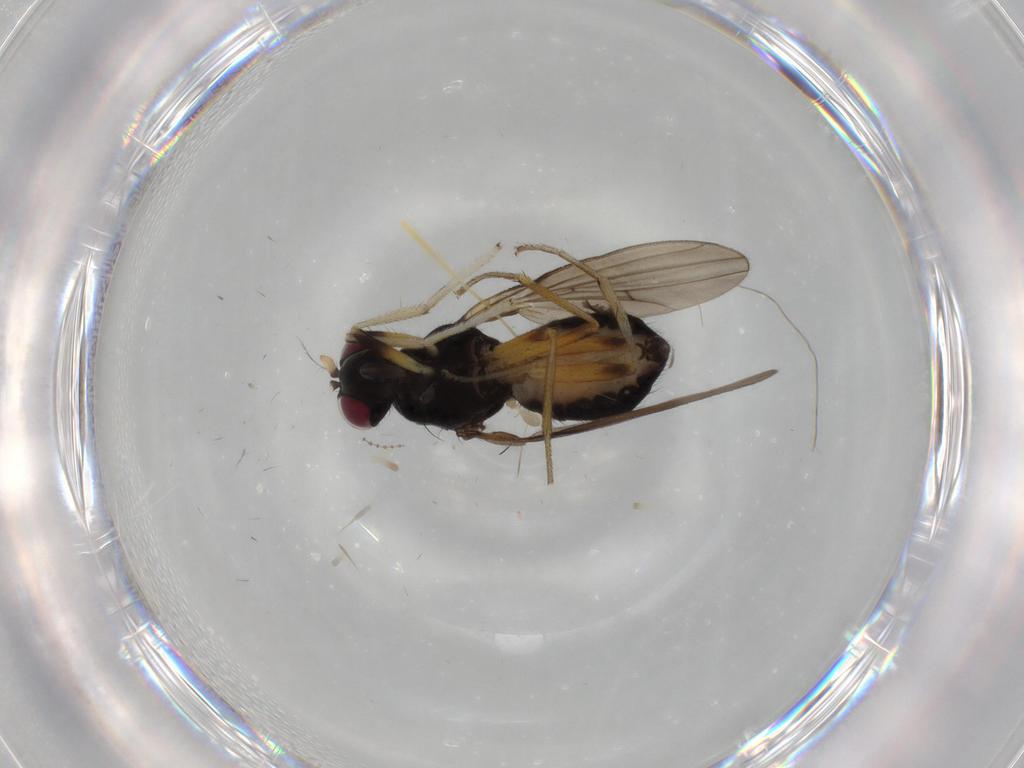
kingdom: Animalia
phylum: Arthropoda
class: Insecta
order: Diptera
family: Lauxaniidae
